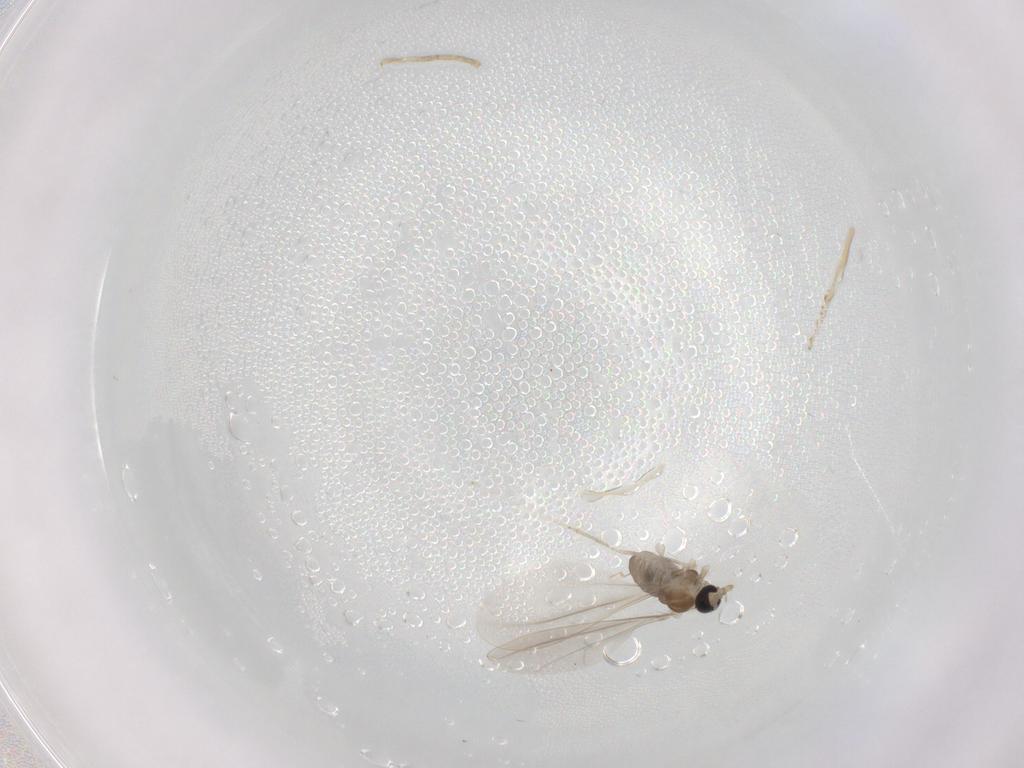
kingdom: Animalia
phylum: Arthropoda
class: Insecta
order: Diptera
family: Cecidomyiidae
